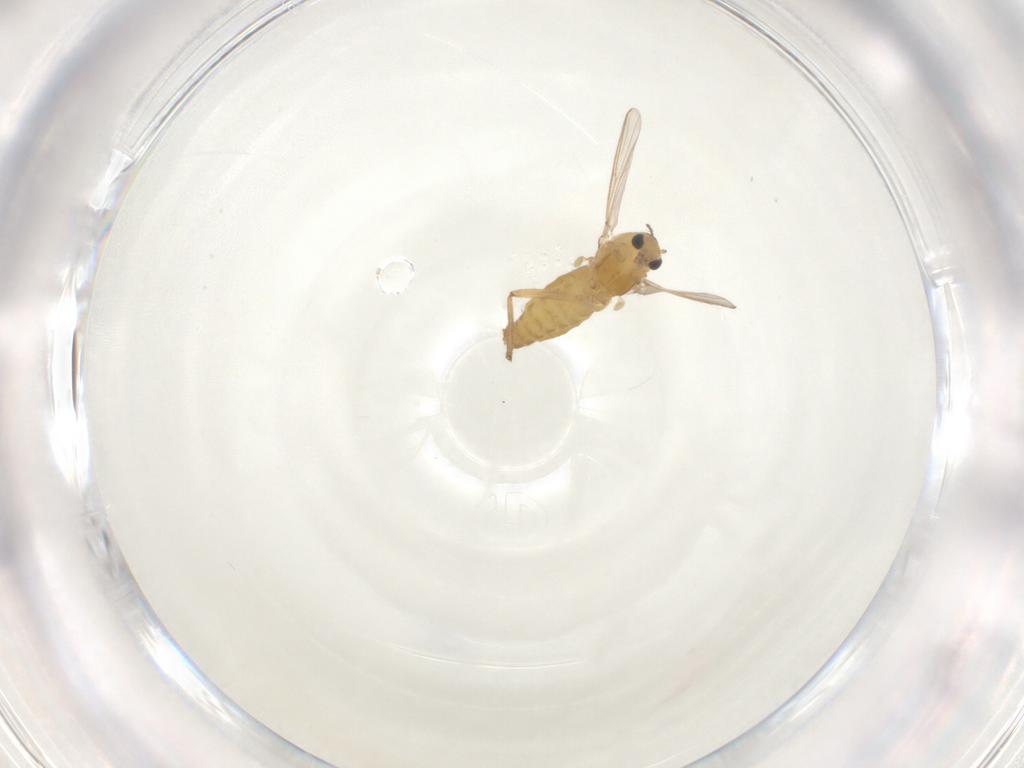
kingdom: Animalia
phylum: Arthropoda
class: Insecta
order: Diptera
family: Chironomidae
